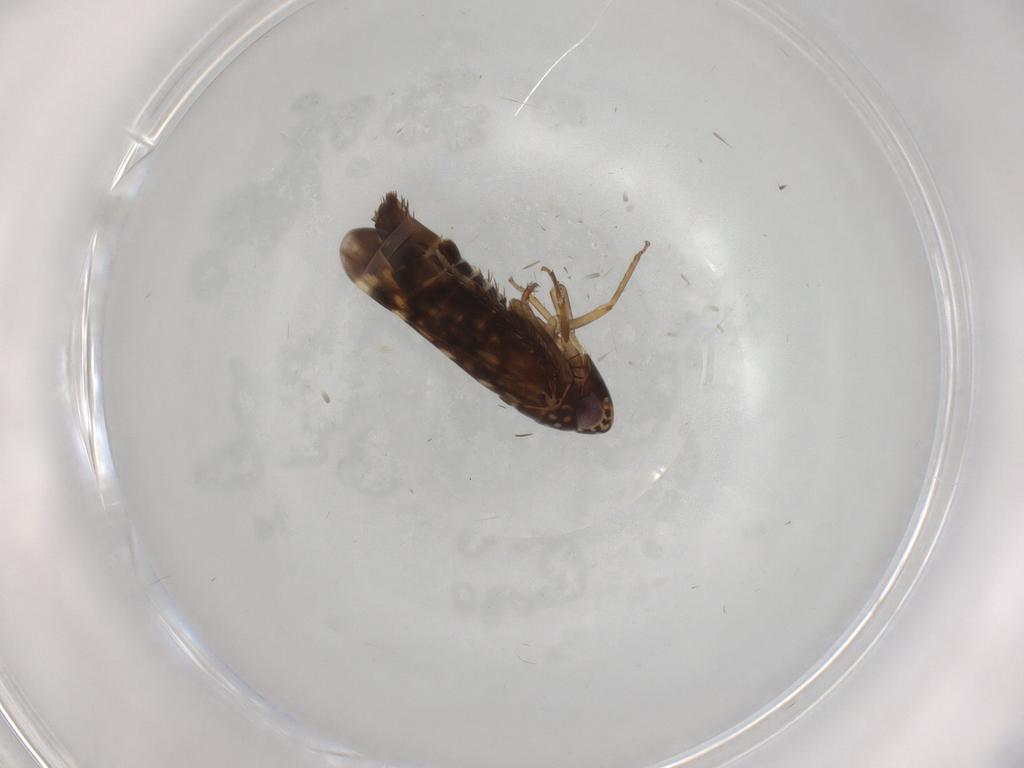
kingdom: Animalia
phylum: Arthropoda
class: Insecta
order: Hemiptera
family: Cicadellidae
